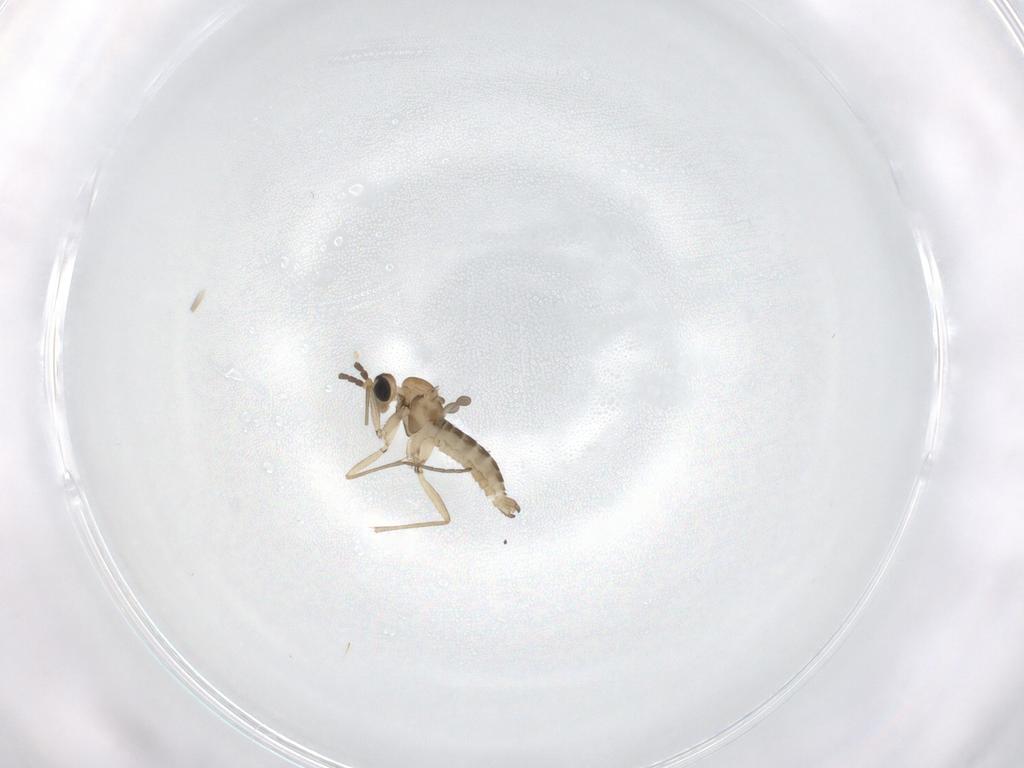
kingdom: Animalia
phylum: Arthropoda
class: Insecta
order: Diptera
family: Sciaridae
